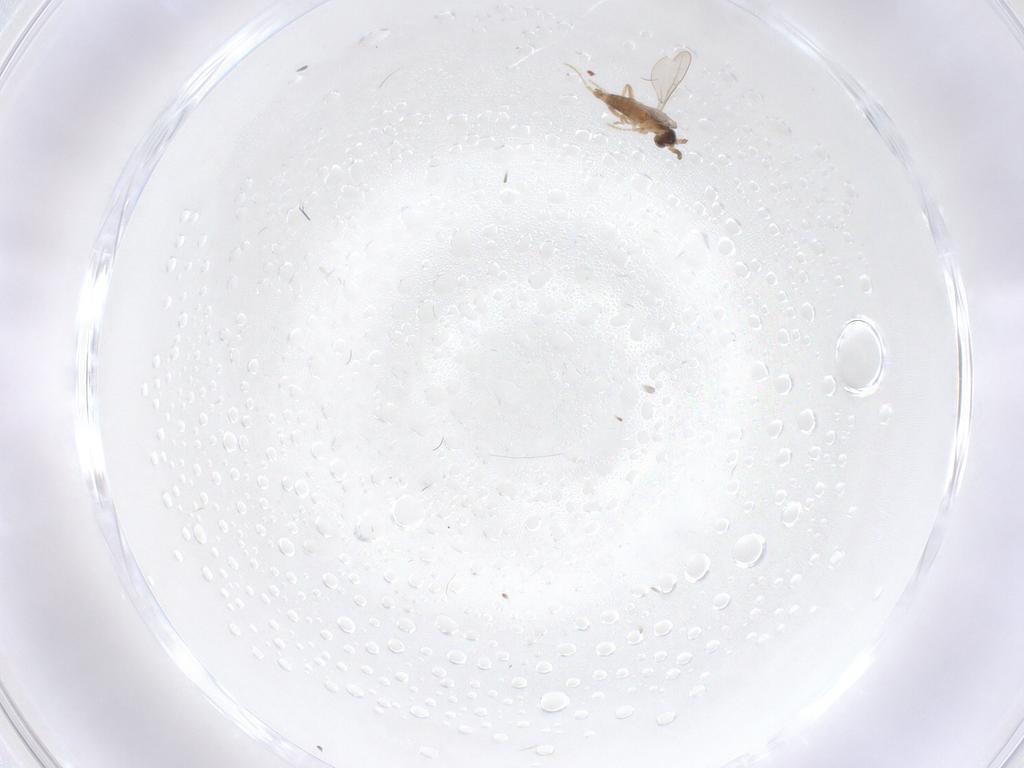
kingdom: Animalia
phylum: Arthropoda
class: Insecta
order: Diptera
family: Cecidomyiidae
